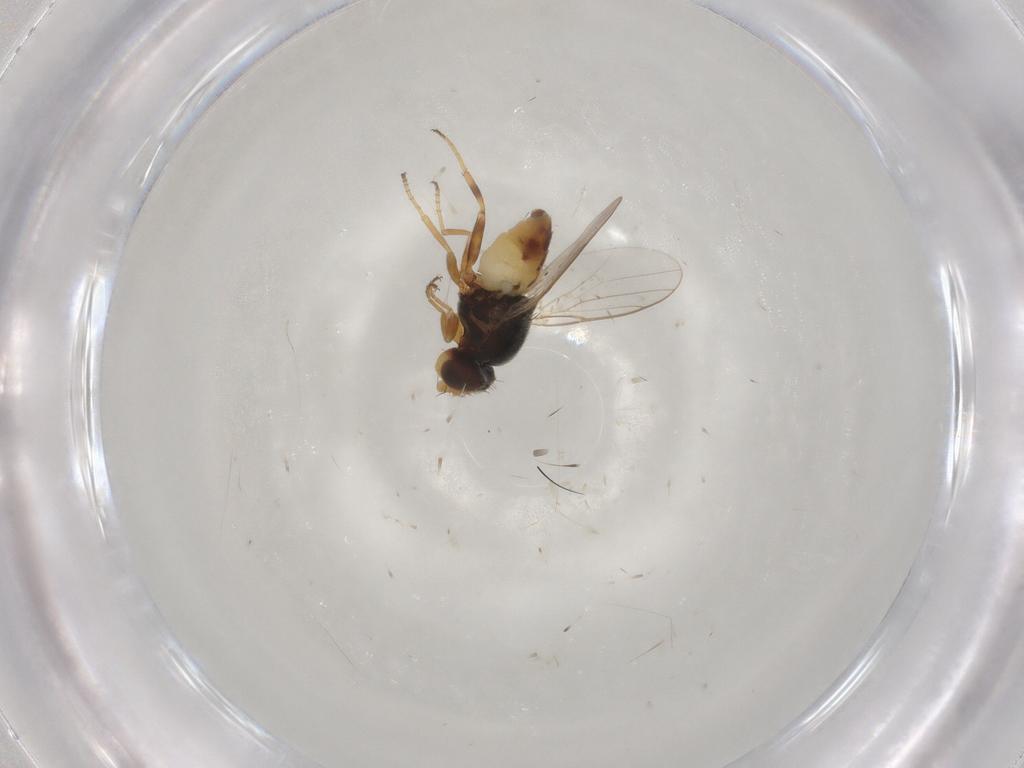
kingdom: Animalia
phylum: Arthropoda
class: Insecta
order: Diptera
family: Chloropidae
